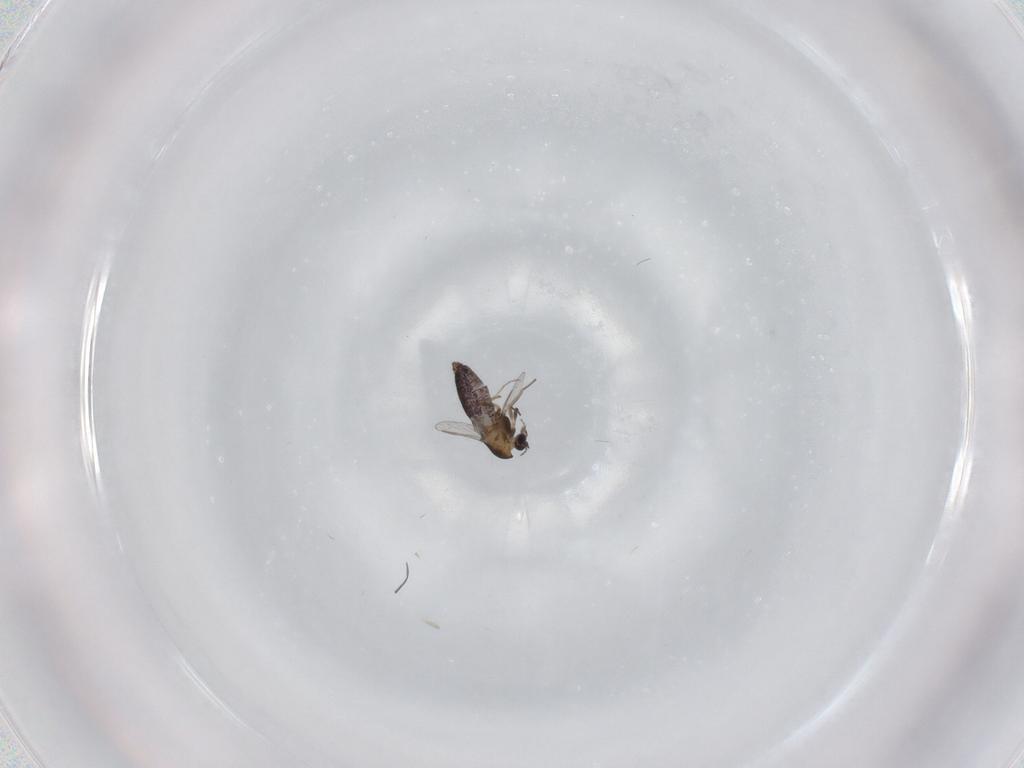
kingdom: Animalia
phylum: Arthropoda
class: Insecta
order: Diptera
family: Chironomidae
